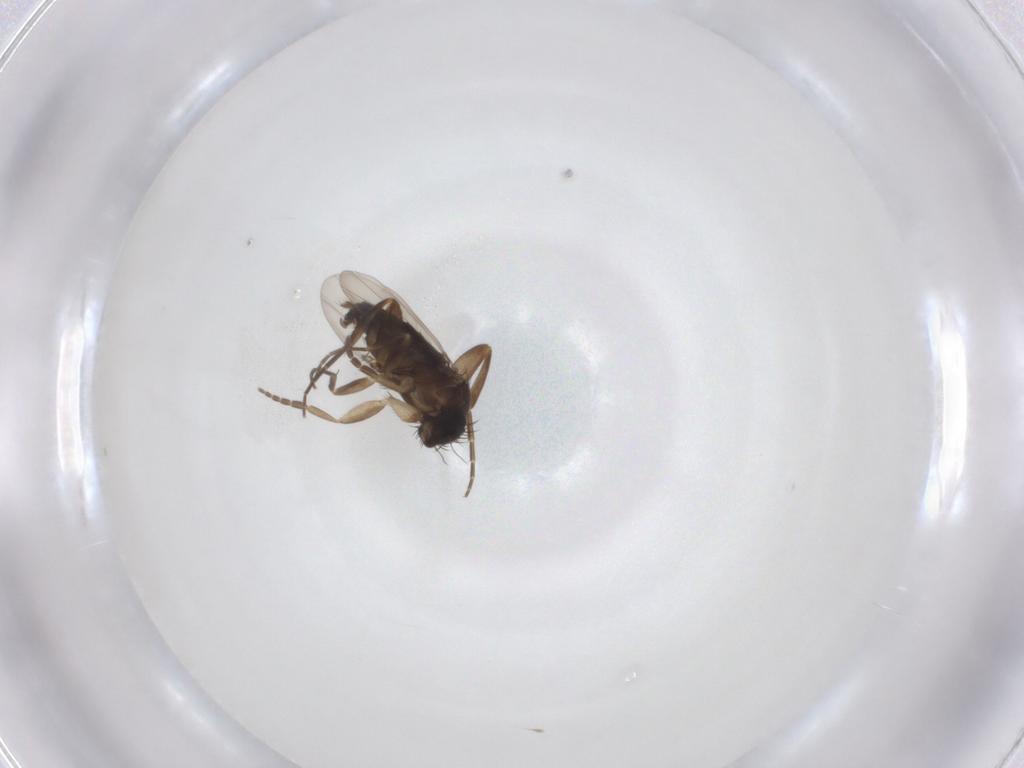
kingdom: Animalia
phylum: Arthropoda
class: Insecta
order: Diptera
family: Phoridae
